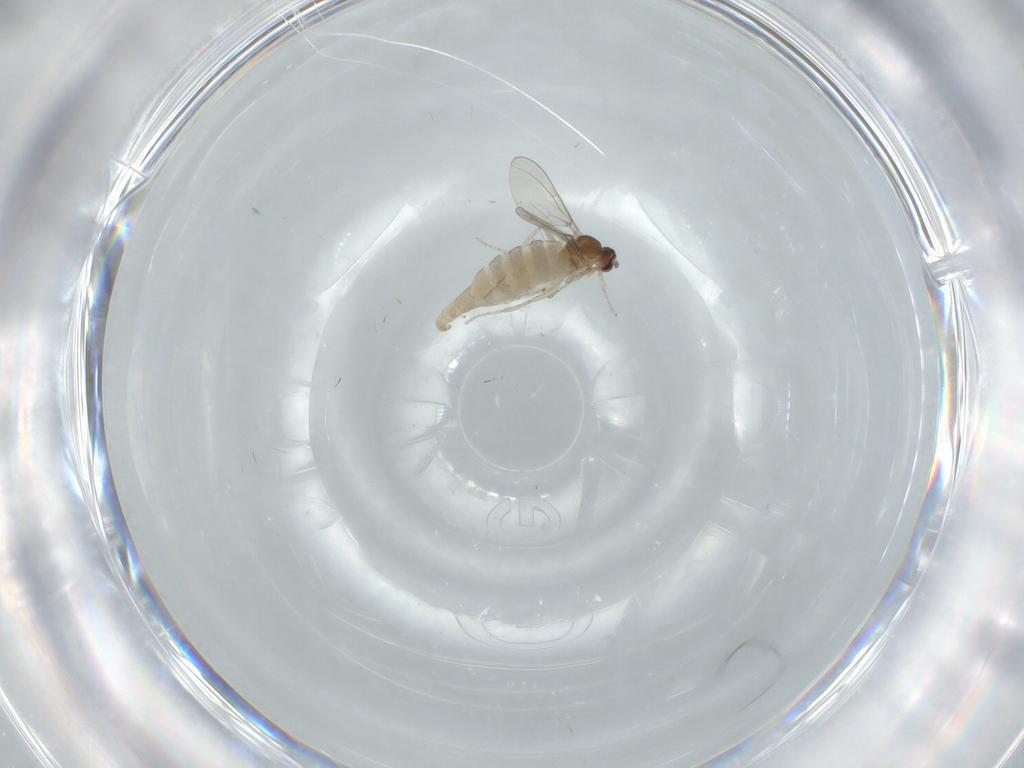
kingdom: Animalia
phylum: Arthropoda
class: Insecta
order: Diptera
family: Cecidomyiidae
